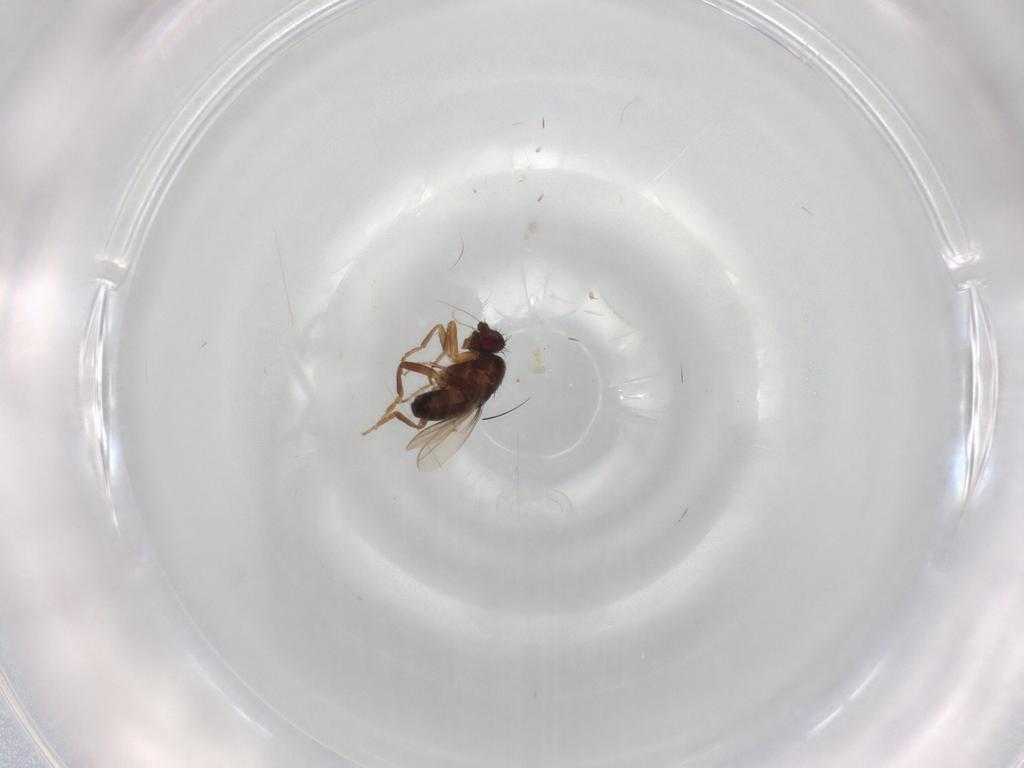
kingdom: Animalia
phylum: Arthropoda
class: Insecta
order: Diptera
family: Sphaeroceridae
